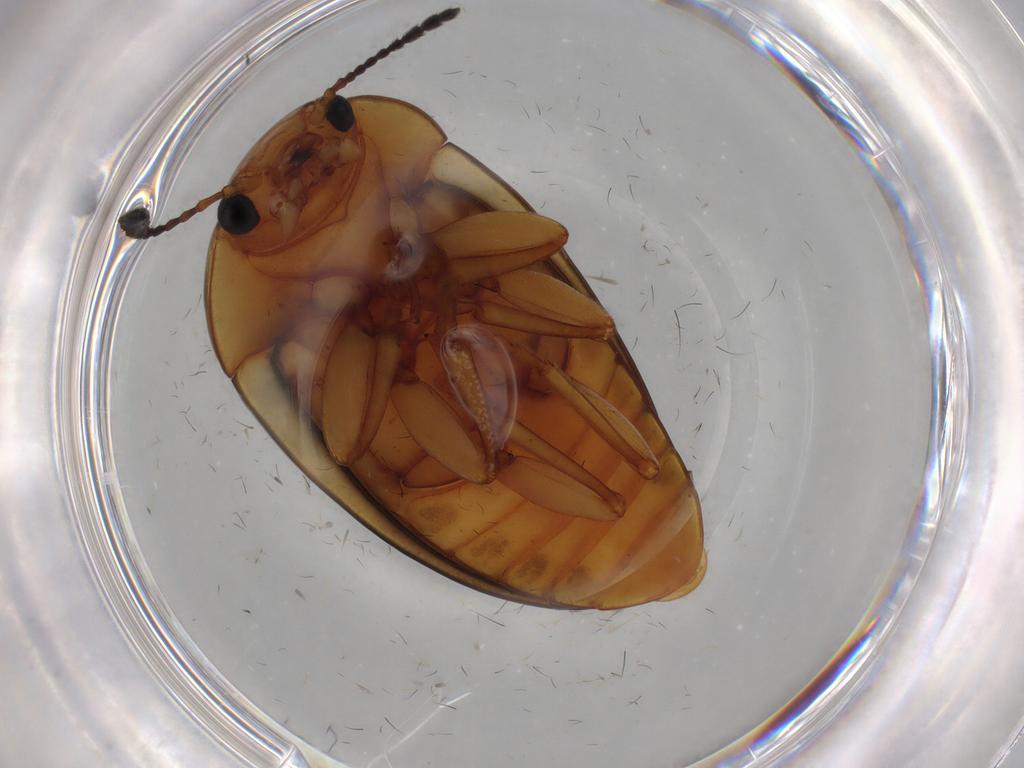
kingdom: Animalia
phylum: Arthropoda
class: Insecta
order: Coleoptera
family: Erotylidae
